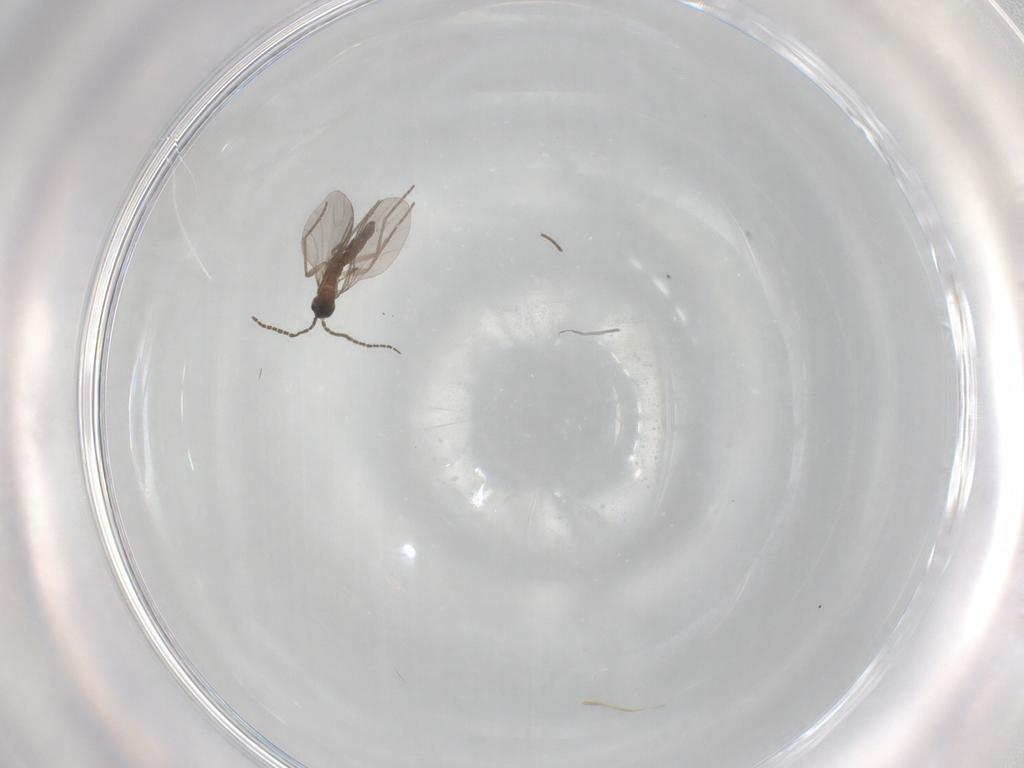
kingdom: Animalia
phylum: Arthropoda
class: Insecta
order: Diptera
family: Sciaridae
